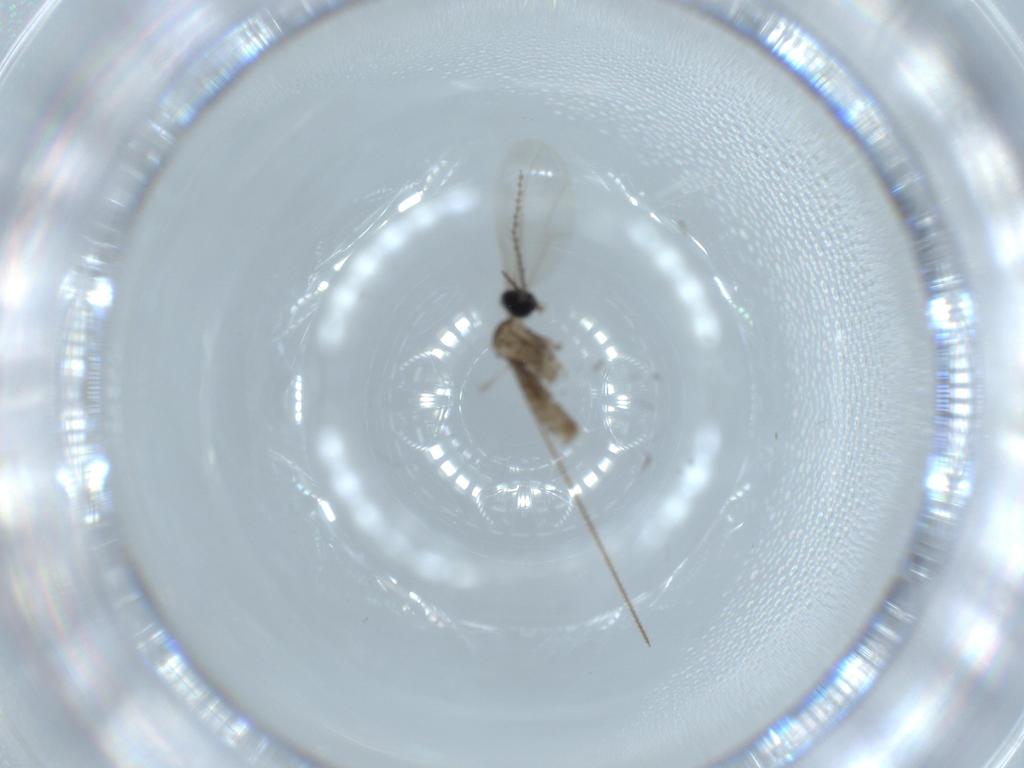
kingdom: Animalia
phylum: Arthropoda
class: Insecta
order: Diptera
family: Cecidomyiidae
